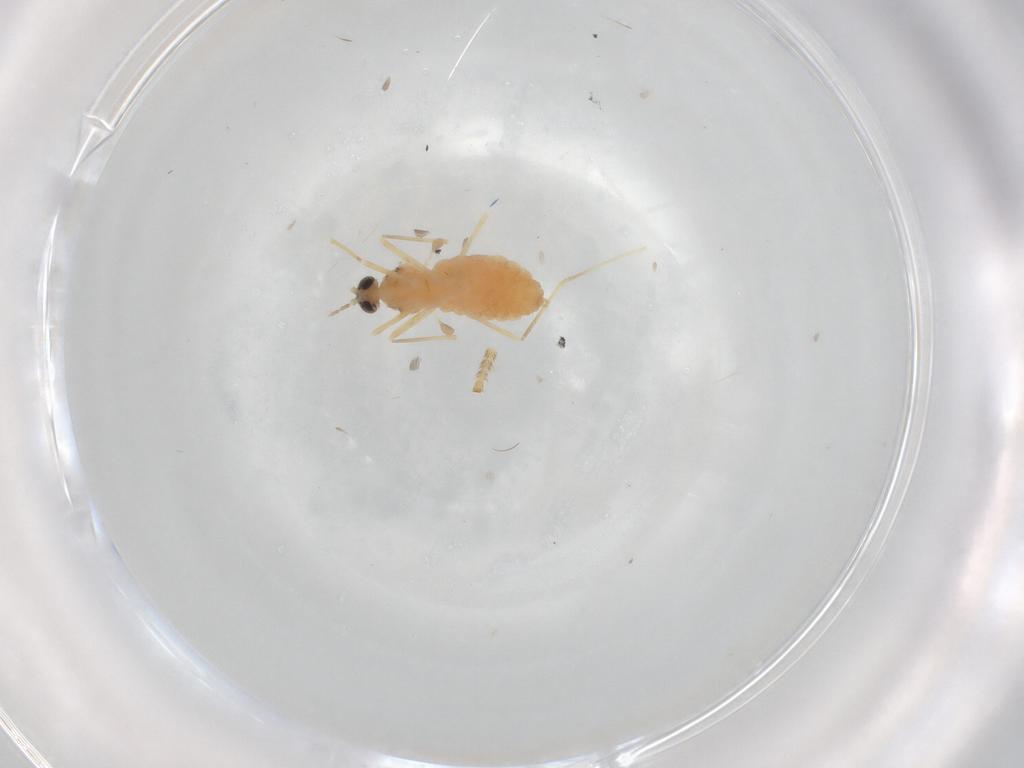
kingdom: Animalia
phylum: Arthropoda
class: Insecta
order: Diptera
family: Cecidomyiidae
